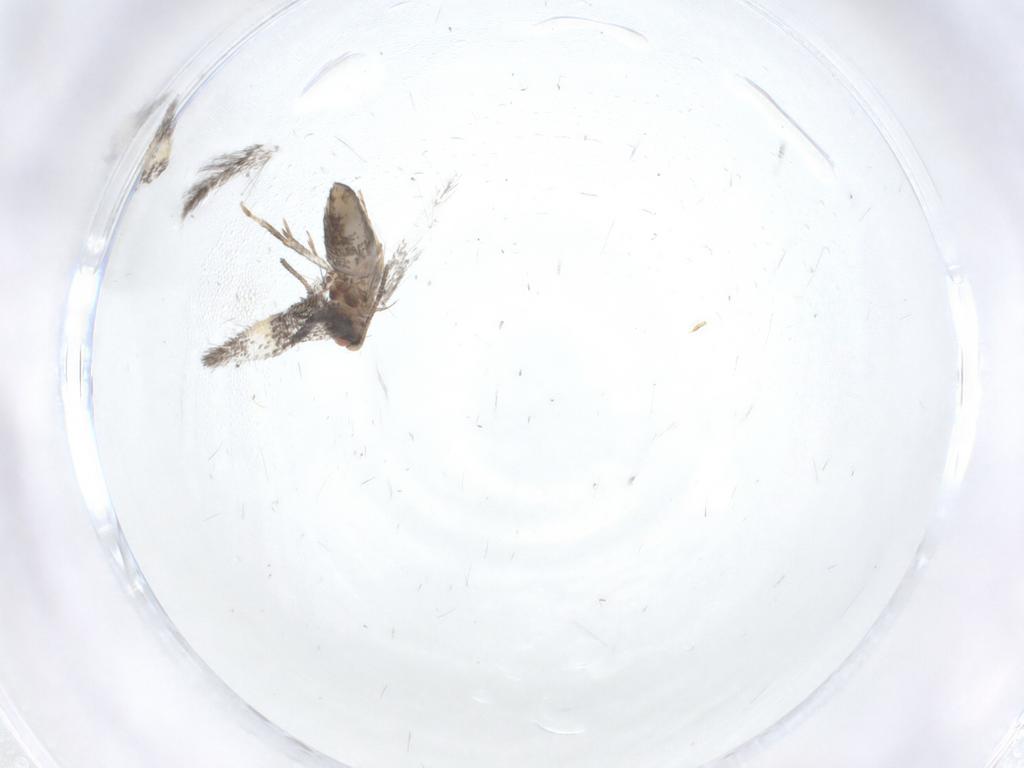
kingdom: Animalia
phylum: Arthropoda
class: Insecta
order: Lepidoptera
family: Nepticulidae
